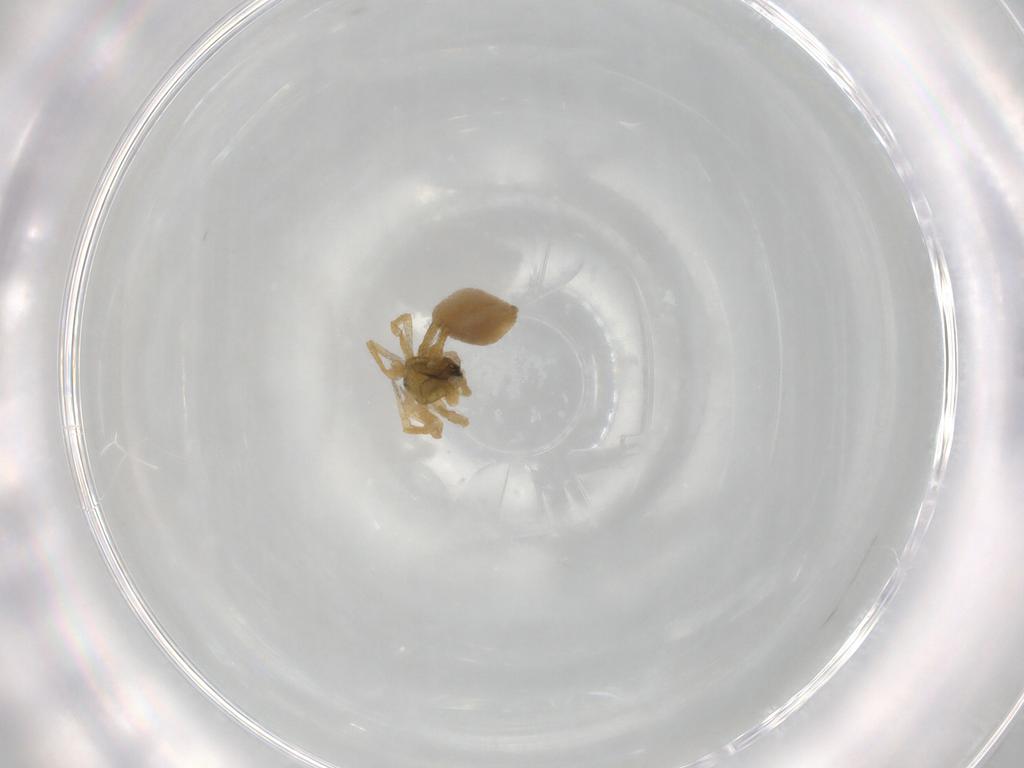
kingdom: Animalia
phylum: Arthropoda
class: Arachnida
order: Araneae
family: Linyphiidae
